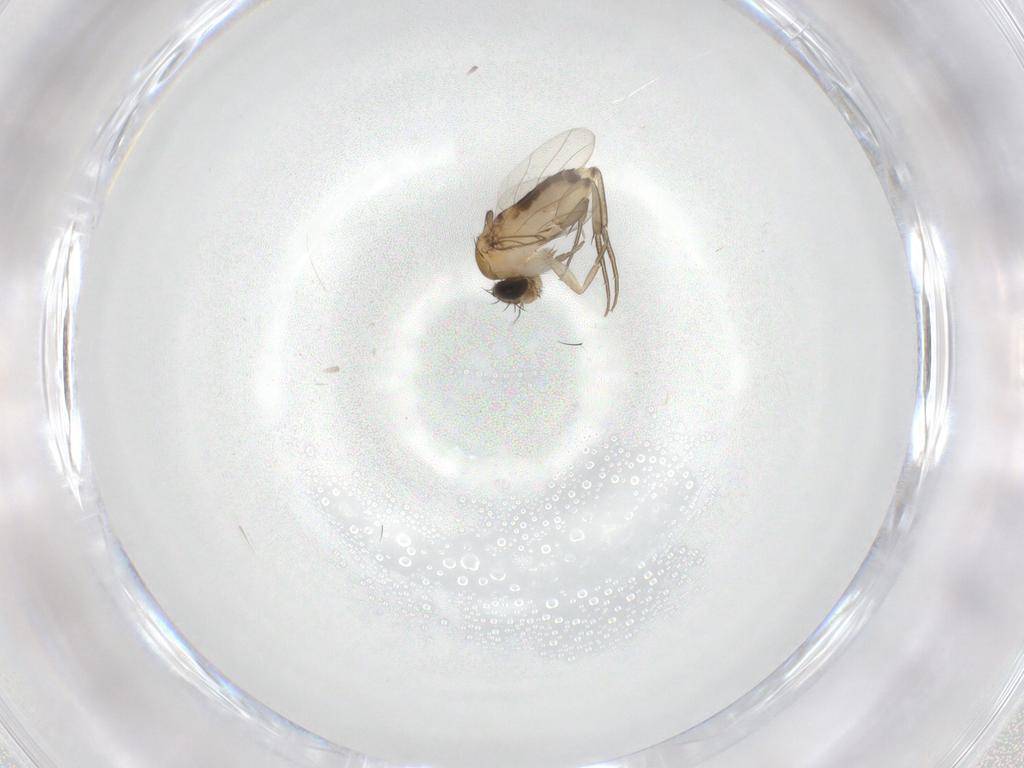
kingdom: Animalia
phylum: Arthropoda
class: Insecta
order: Diptera
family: Phoridae
